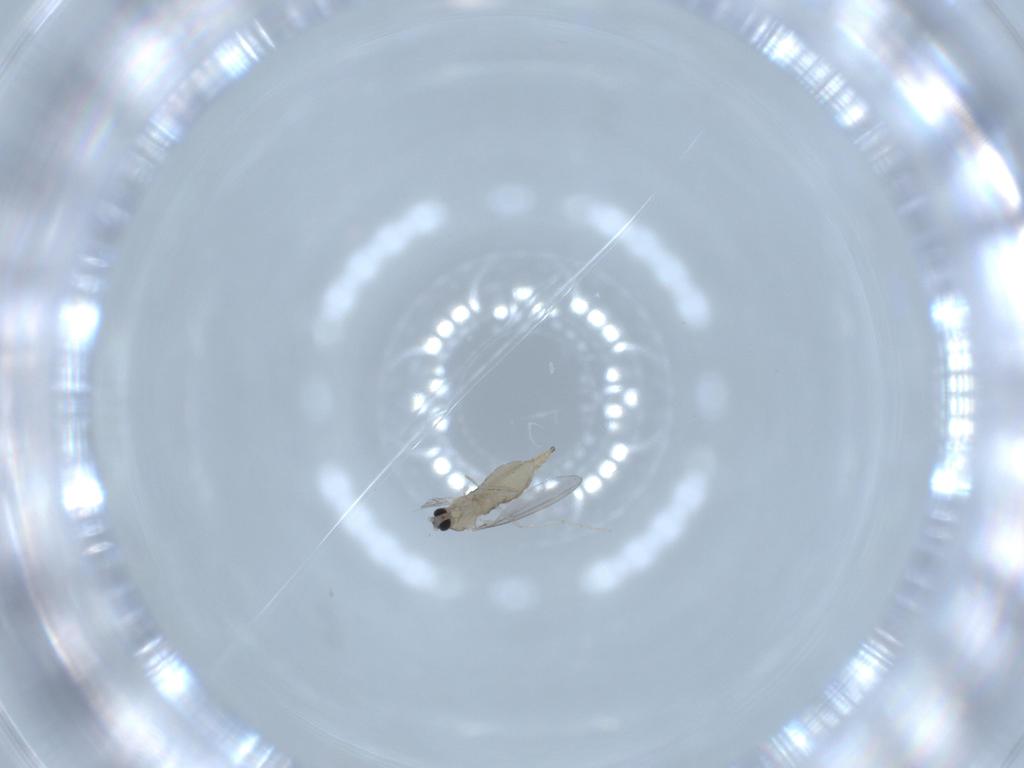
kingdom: Animalia
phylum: Arthropoda
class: Insecta
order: Diptera
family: Cecidomyiidae
